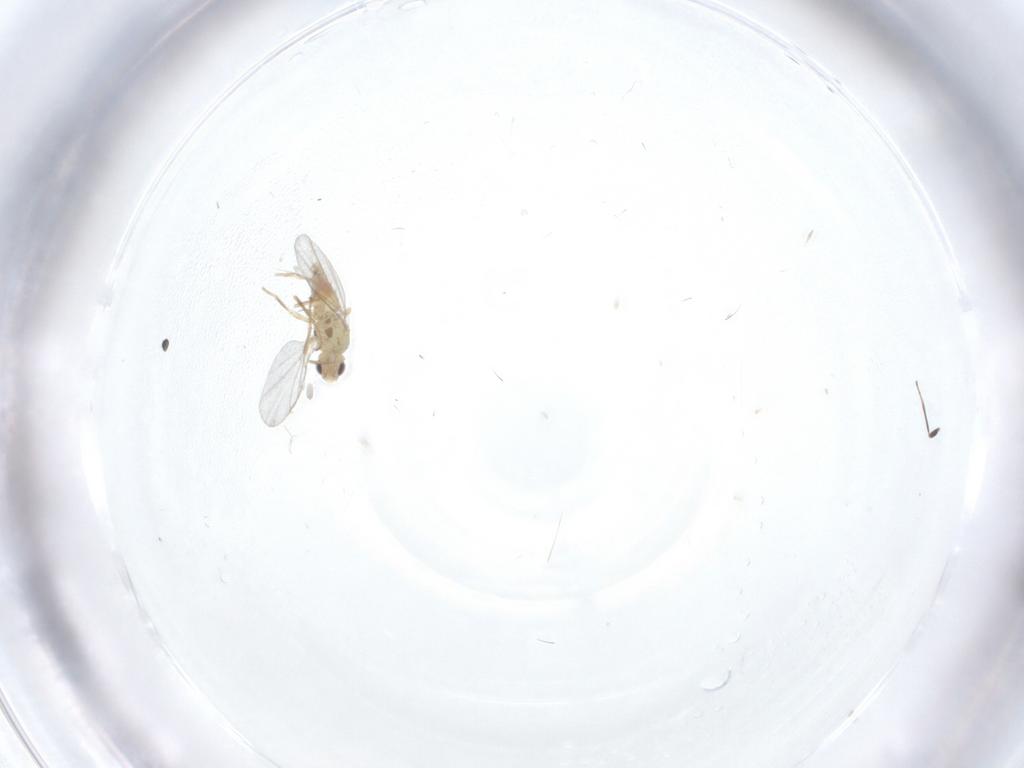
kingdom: Animalia
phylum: Arthropoda
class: Insecta
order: Diptera
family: Agromyzidae
